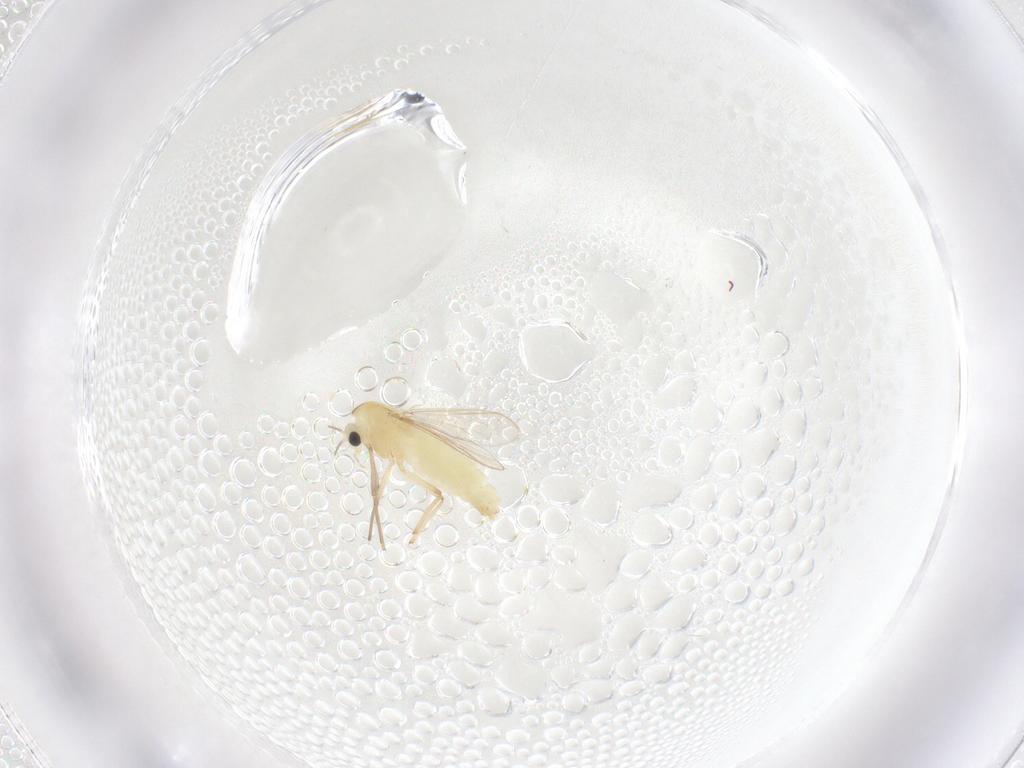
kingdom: Animalia
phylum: Arthropoda
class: Insecta
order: Diptera
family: Chironomidae
